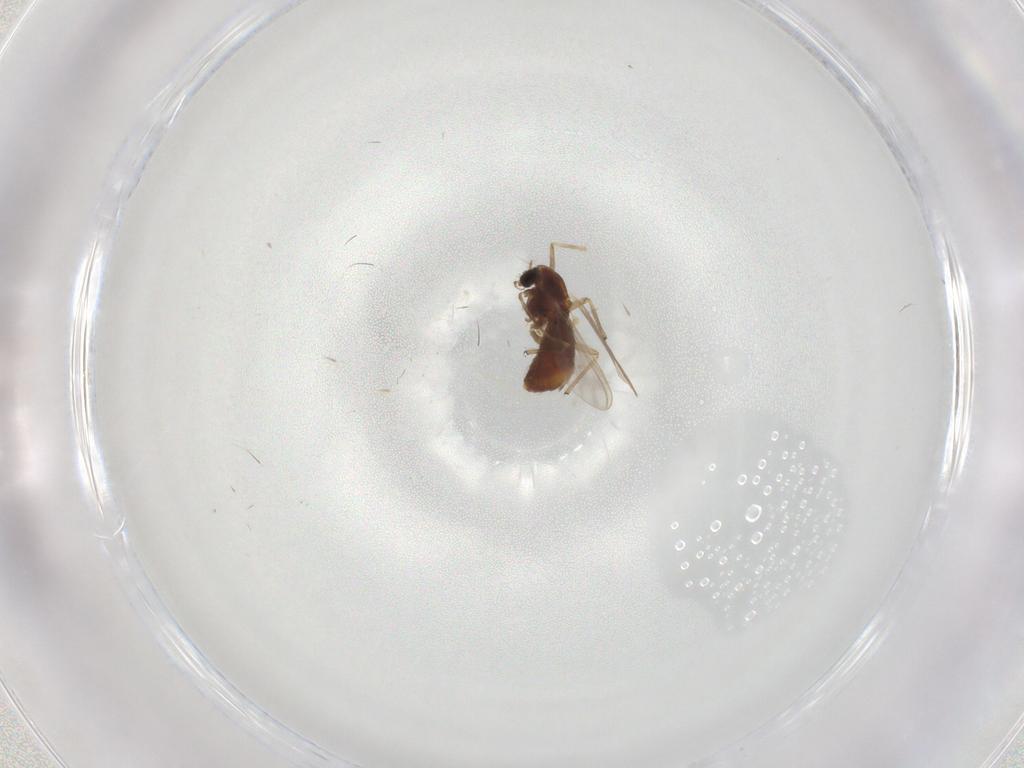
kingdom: Animalia
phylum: Arthropoda
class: Insecta
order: Diptera
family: Chironomidae
